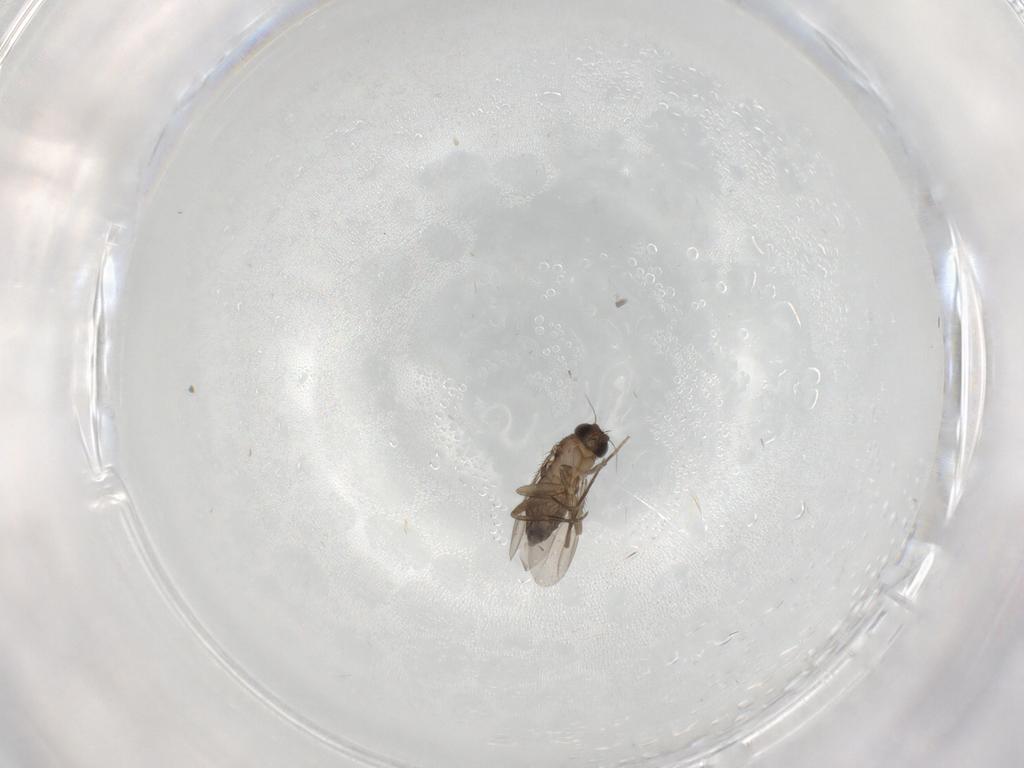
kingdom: Animalia
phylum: Arthropoda
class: Insecta
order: Diptera
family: Phoridae
